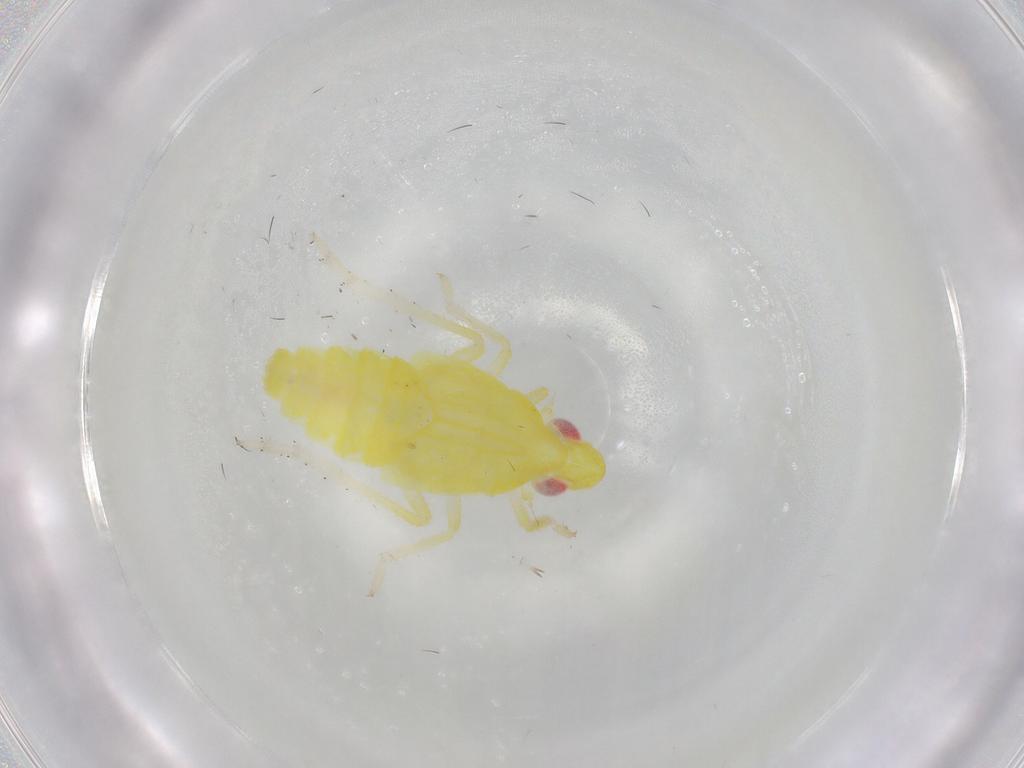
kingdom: Animalia
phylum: Arthropoda
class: Insecta
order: Hemiptera
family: Tropiduchidae
